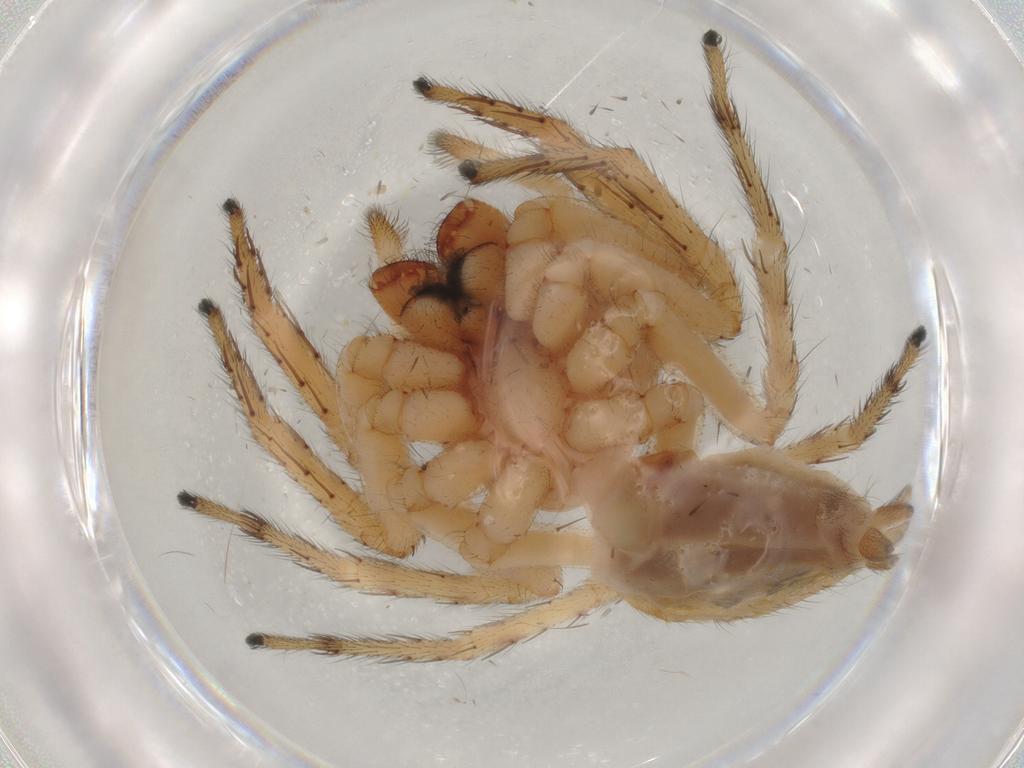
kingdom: Animalia
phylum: Arthropoda
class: Arachnida
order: Araneae
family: Salticidae
